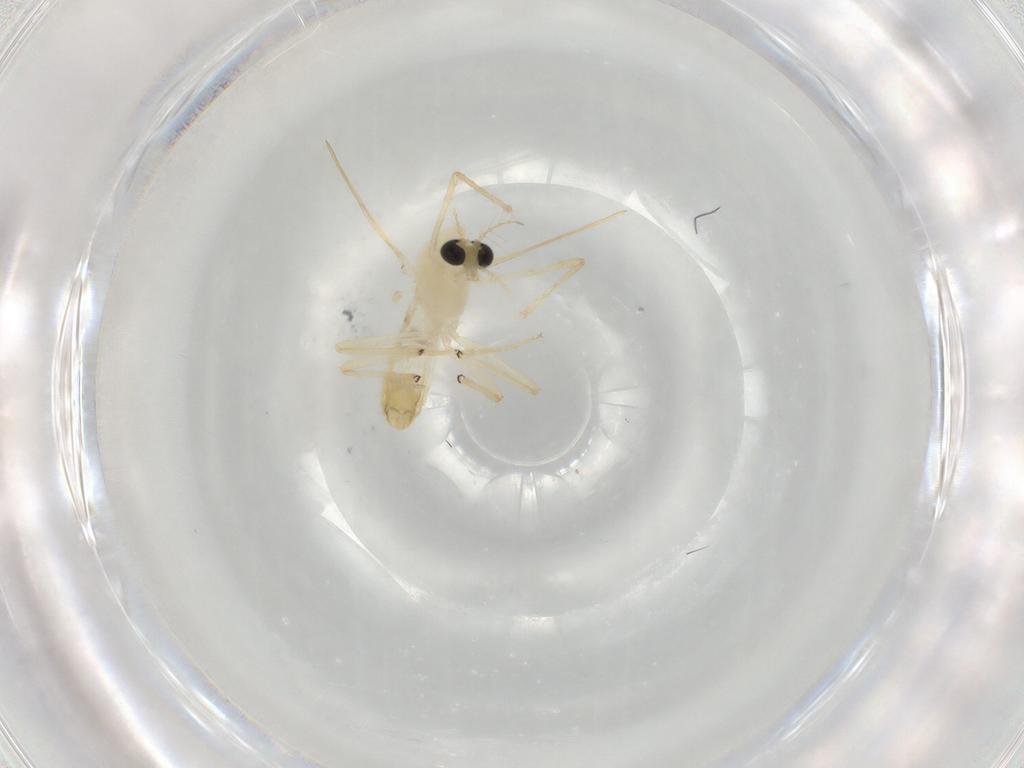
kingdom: Animalia
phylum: Arthropoda
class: Insecta
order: Diptera
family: Chironomidae
